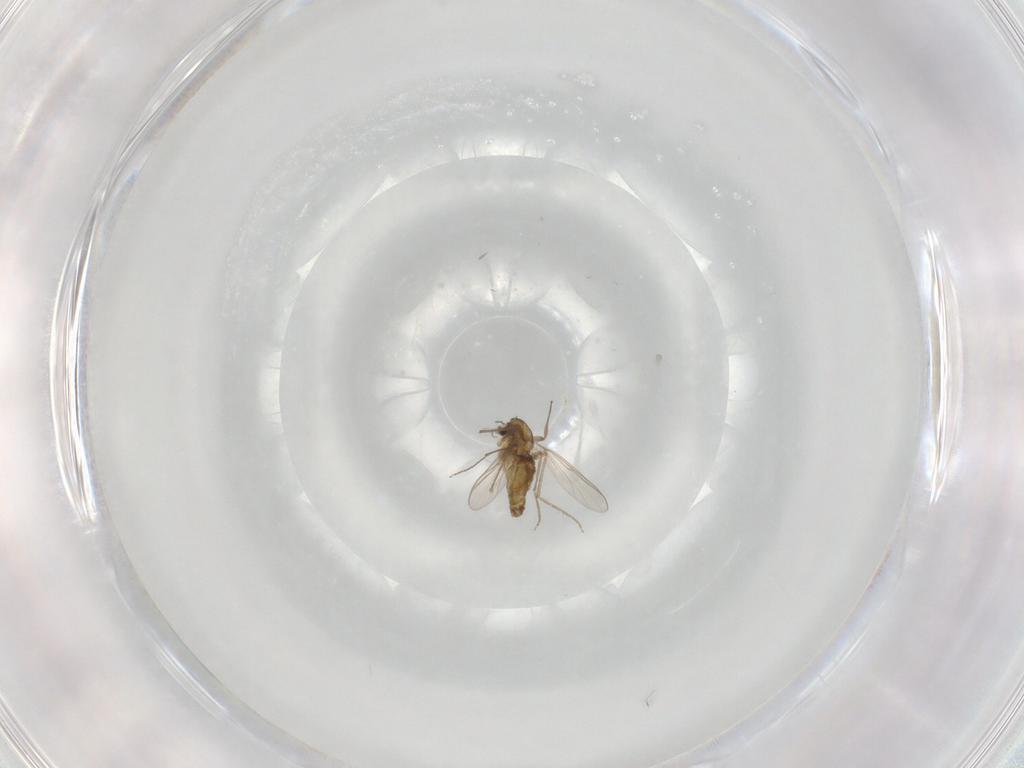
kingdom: Animalia
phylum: Arthropoda
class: Insecta
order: Diptera
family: Chironomidae
